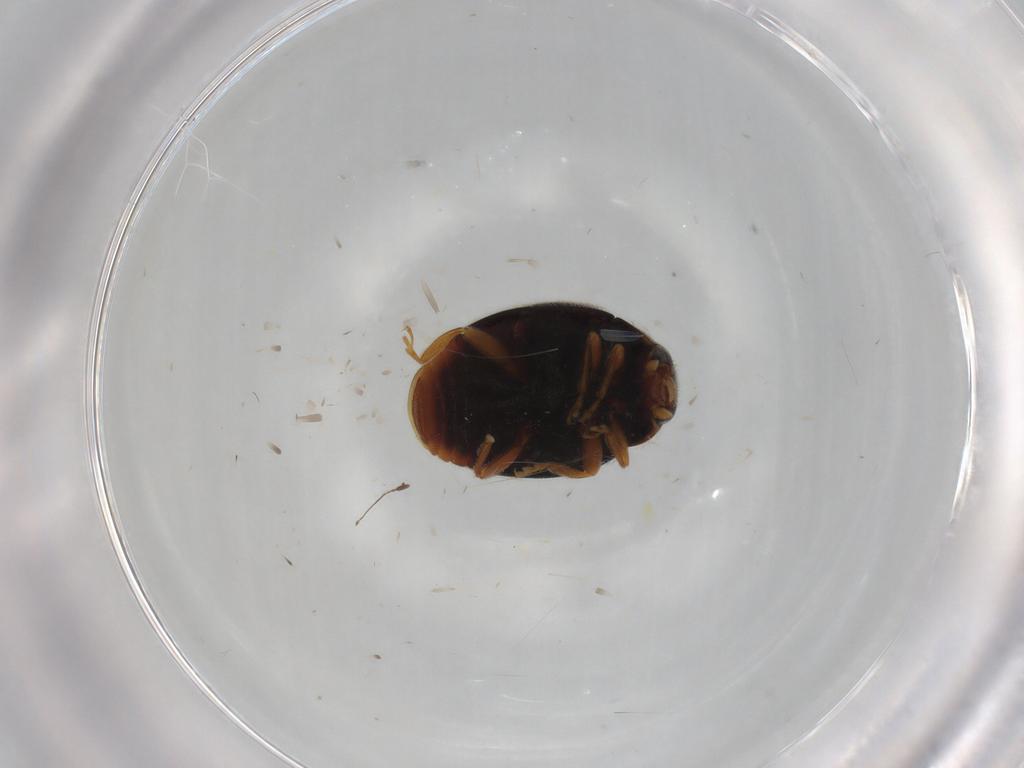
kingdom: Animalia
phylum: Arthropoda
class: Insecta
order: Coleoptera
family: Coccinellidae
